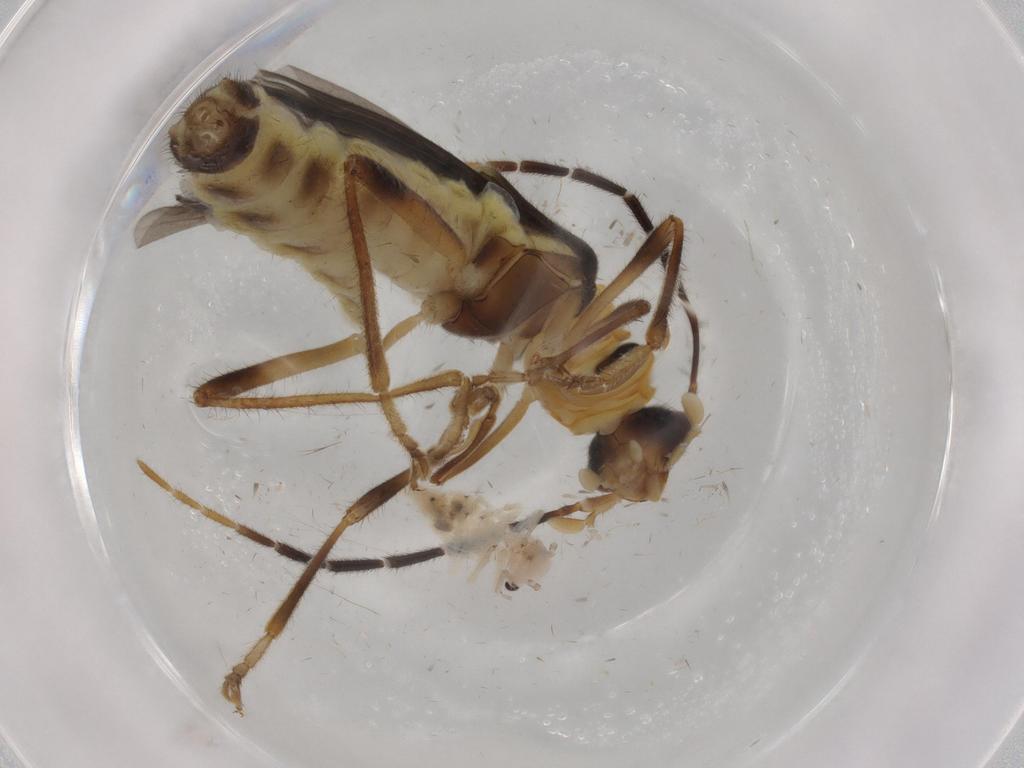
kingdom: Animalia
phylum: Arthropoda
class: Insecta
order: Coleoptera
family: Cantharidae
